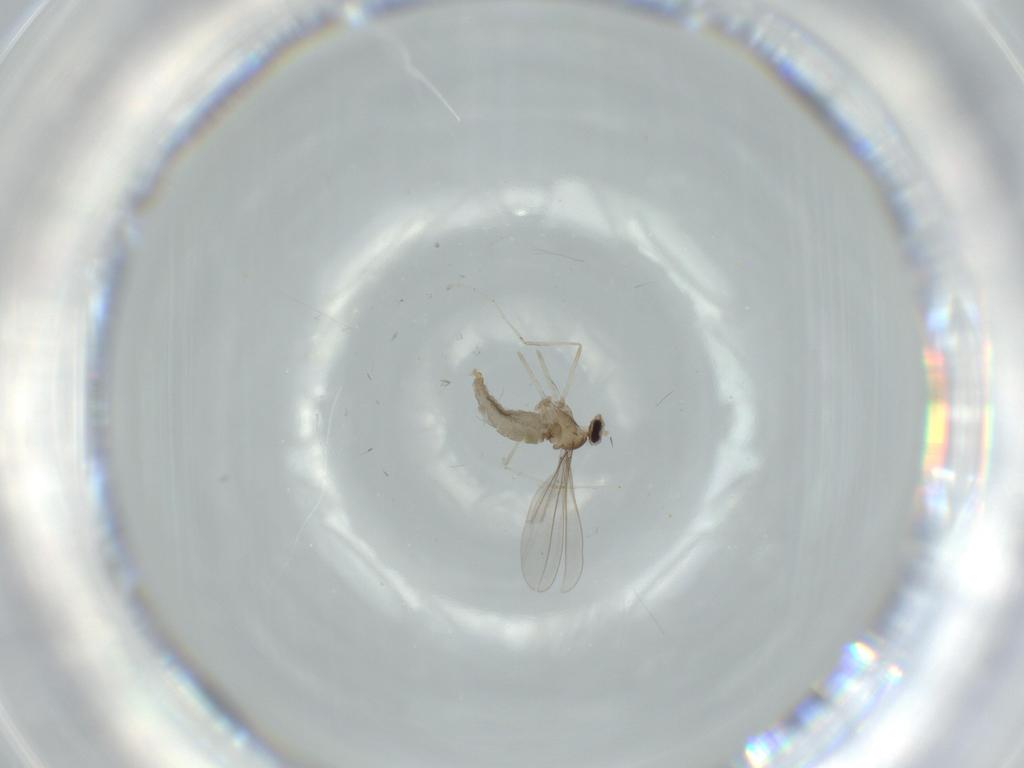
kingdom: Animalia
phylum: Arthropoda
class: Insecta
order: Diptera
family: Cecidomyiidae
